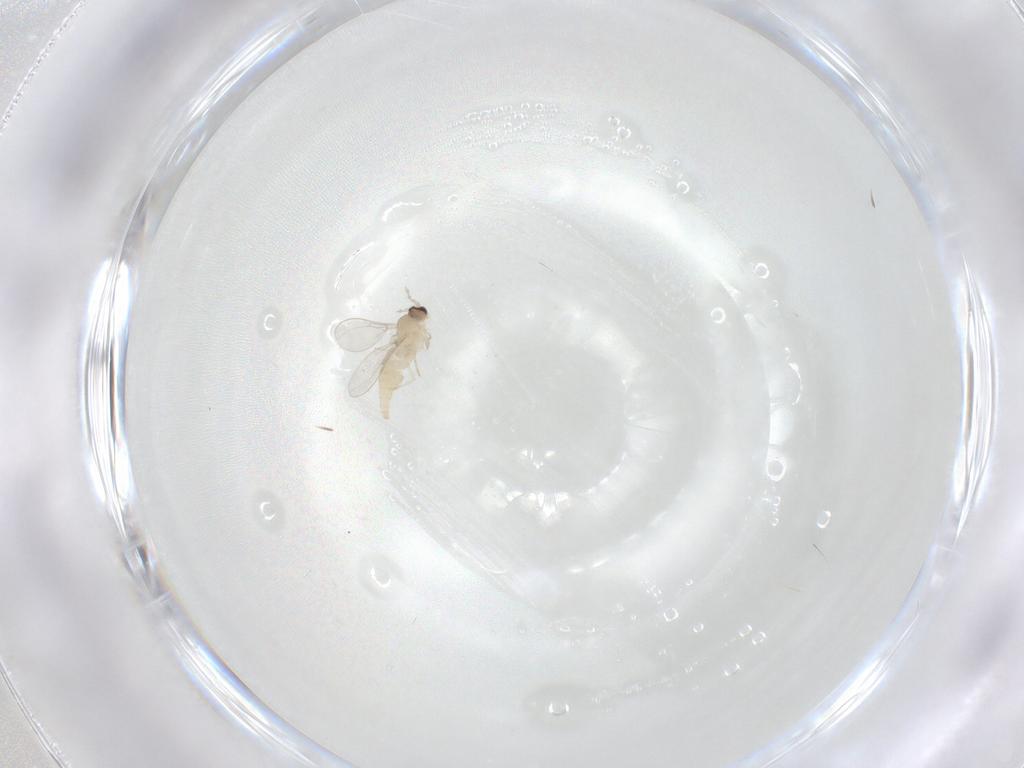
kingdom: Animalia
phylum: Arthropoda
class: Insecta
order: Diptera
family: Cecidomyiidae
